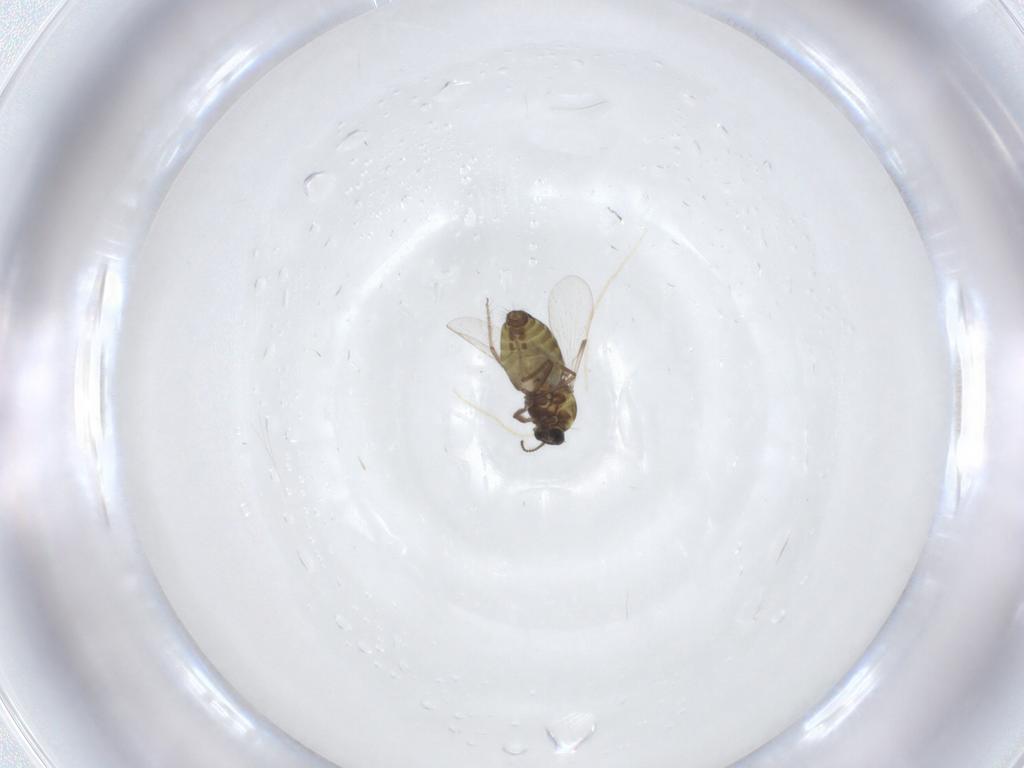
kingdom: Animalia
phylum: Arthropoda
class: Insecta
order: Diptera
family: Ceratopogonidae
